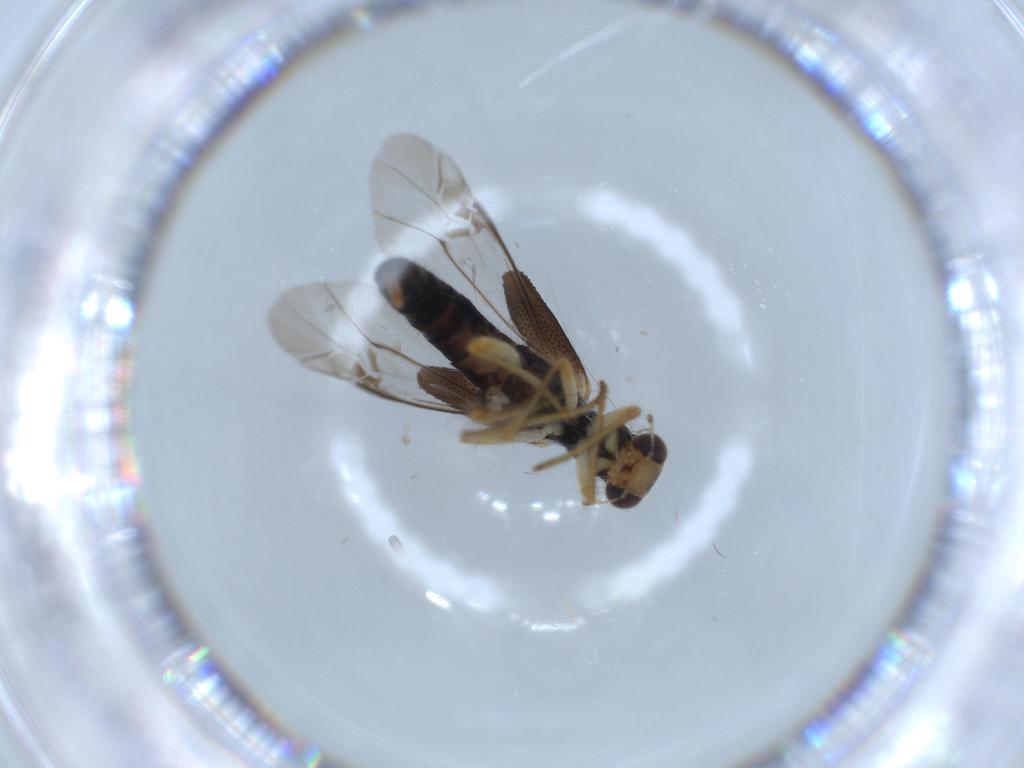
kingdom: Animalia
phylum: Arthropoda
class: Insecta
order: Coleoptera
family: Cleridae
